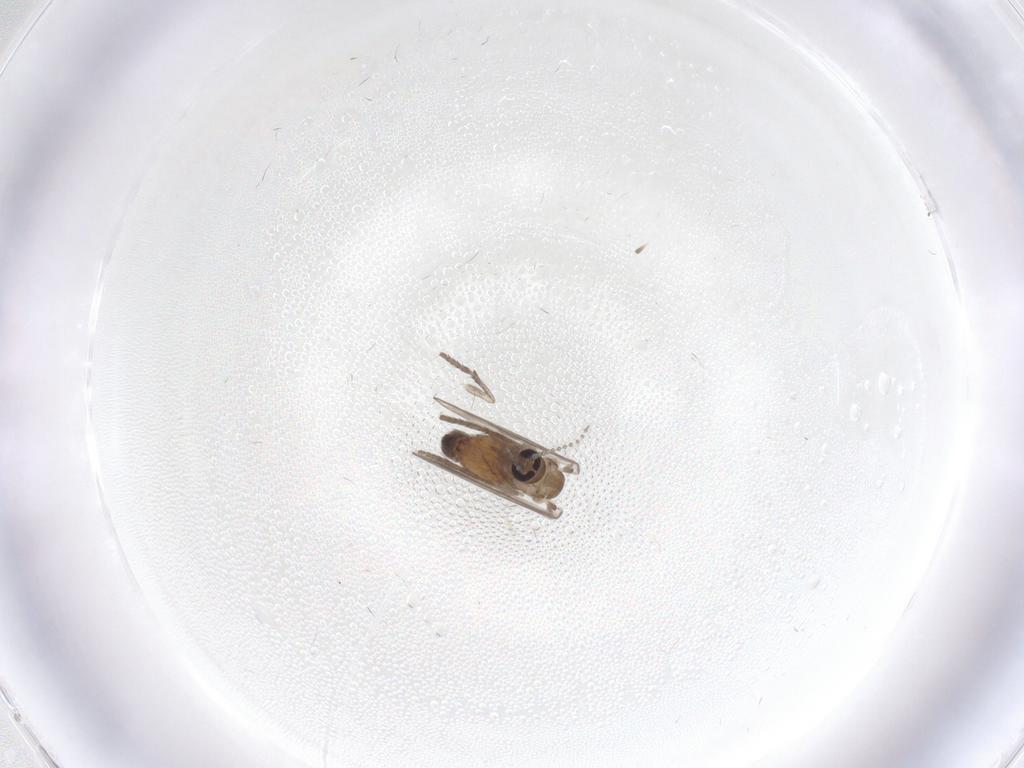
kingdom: Animalia
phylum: Arthropoda
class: Insecta
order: Diptera
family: Psychodidae
